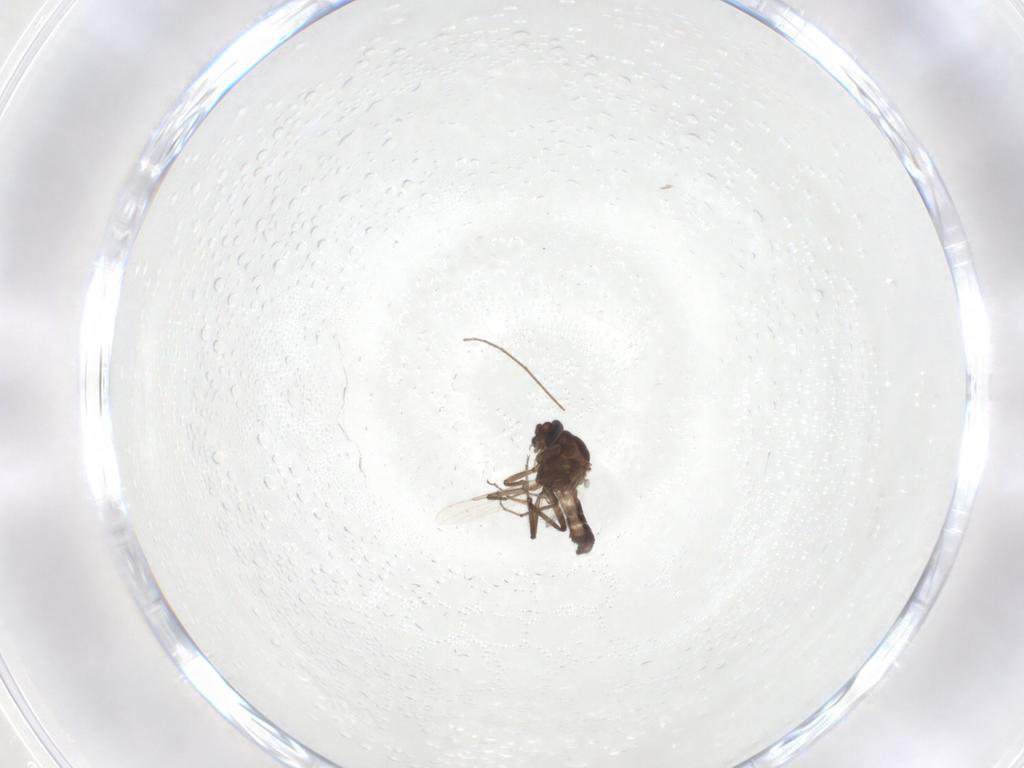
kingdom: Animalia
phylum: Arthropoda
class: Insecta
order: Diptera
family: Ceratopogonidae
